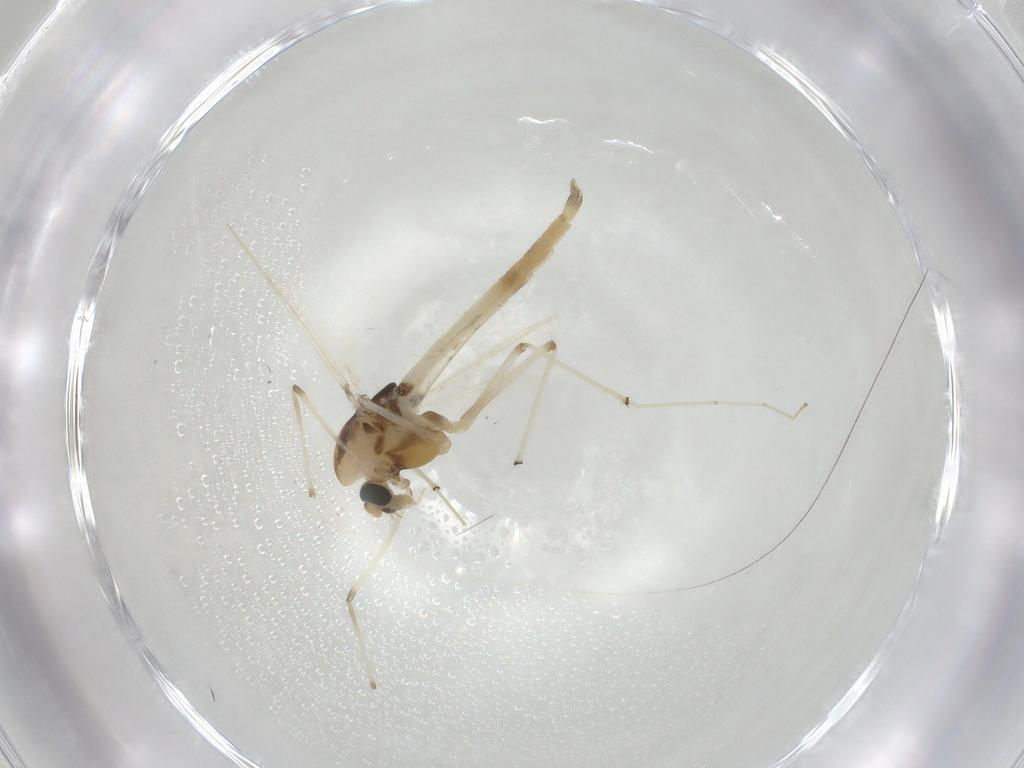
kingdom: Animalia
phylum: Arthropoda
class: Insecta
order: Diptera
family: Chironomidae
